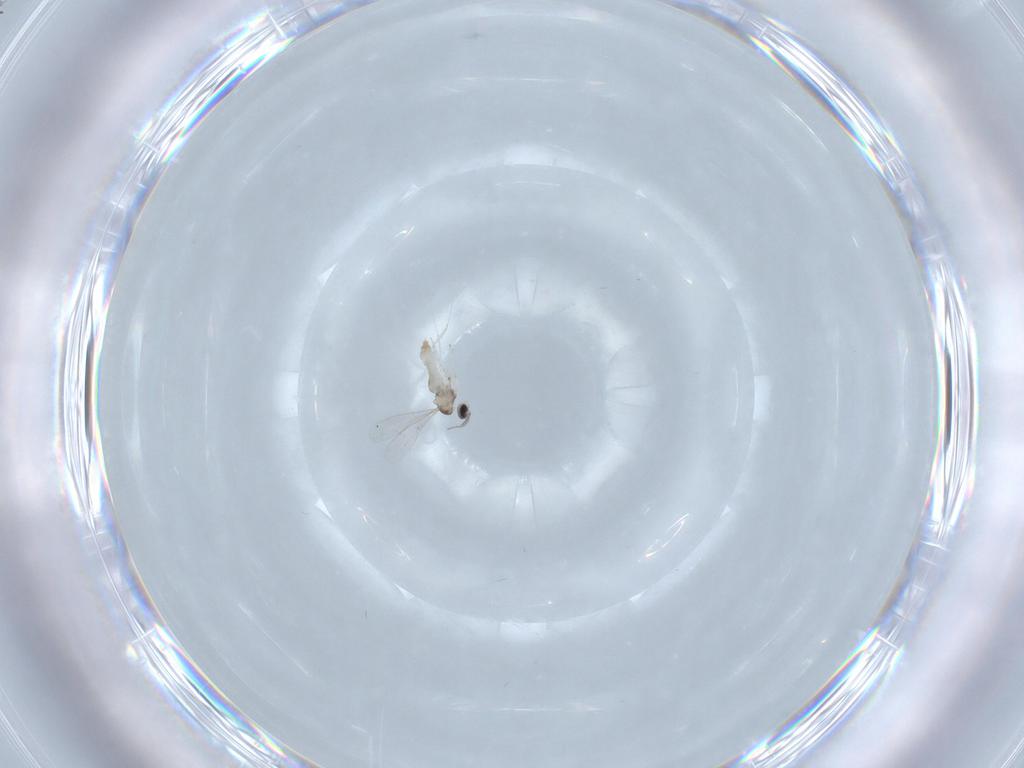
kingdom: Animalia
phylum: Arthropoda
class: Insecta
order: Diptera
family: Cecidomyiidae
